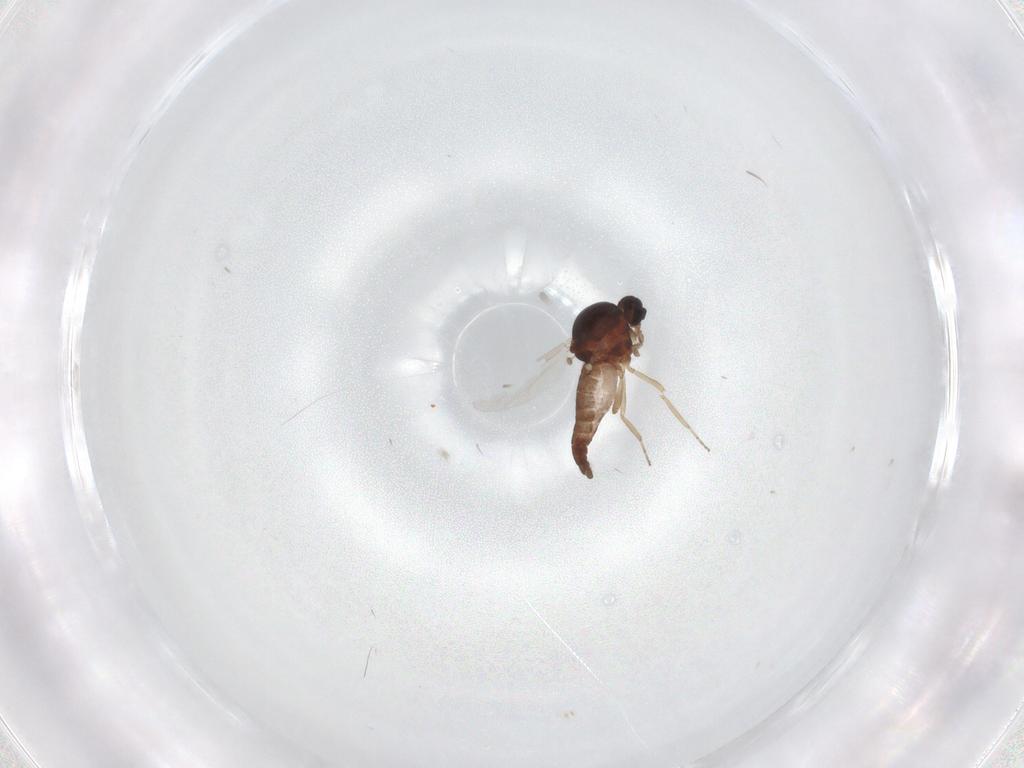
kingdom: Animalia
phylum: Arthropoda
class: Insecta
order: Diptera
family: Ceratopogonidae
